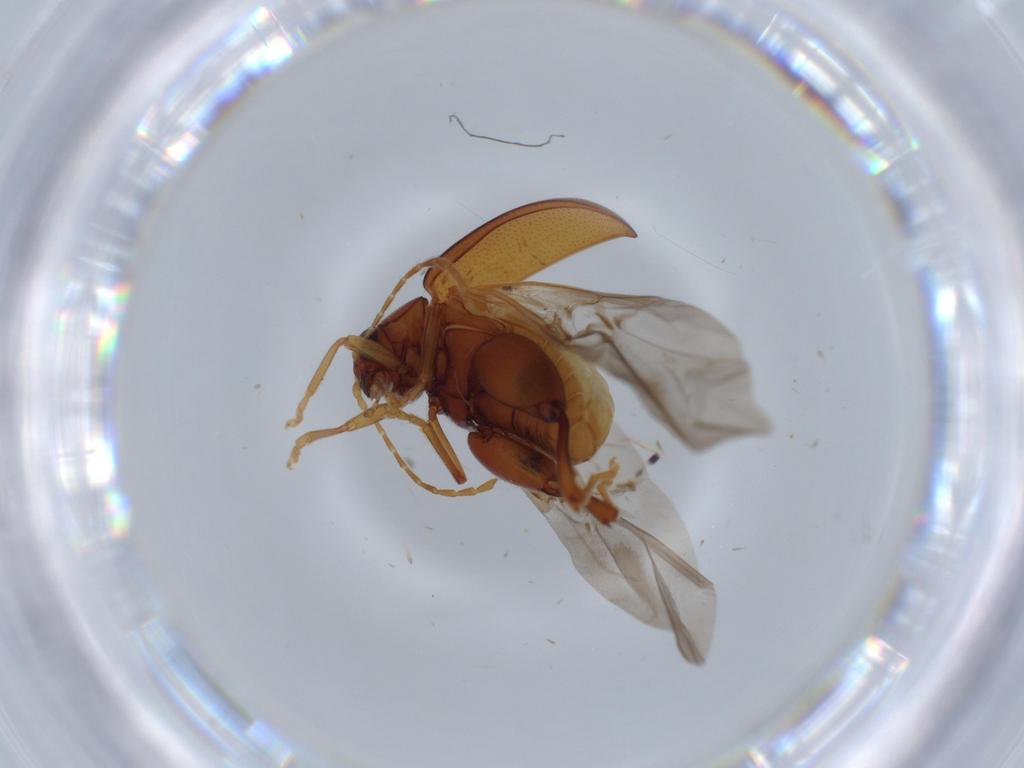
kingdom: Animalia
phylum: Arthropoda
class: Insecta
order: Coleoptera
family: Chrysomelidae
